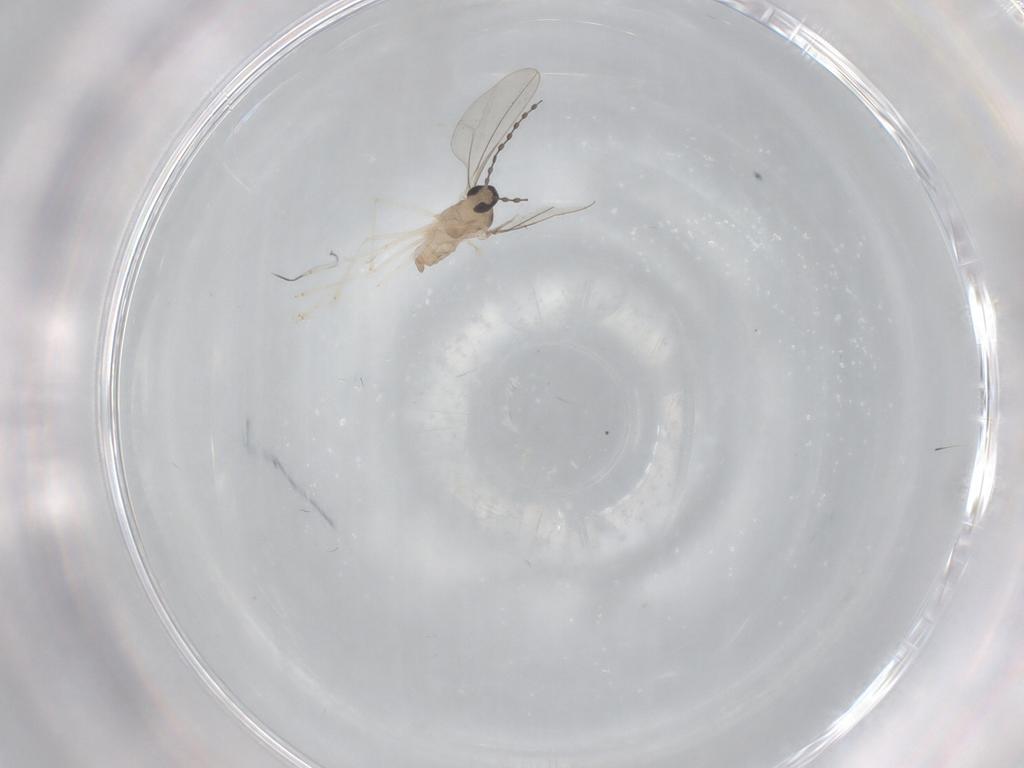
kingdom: Animalia
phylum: Arthropoda
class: Insecta
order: Diptera
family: Cecidomyiidae
